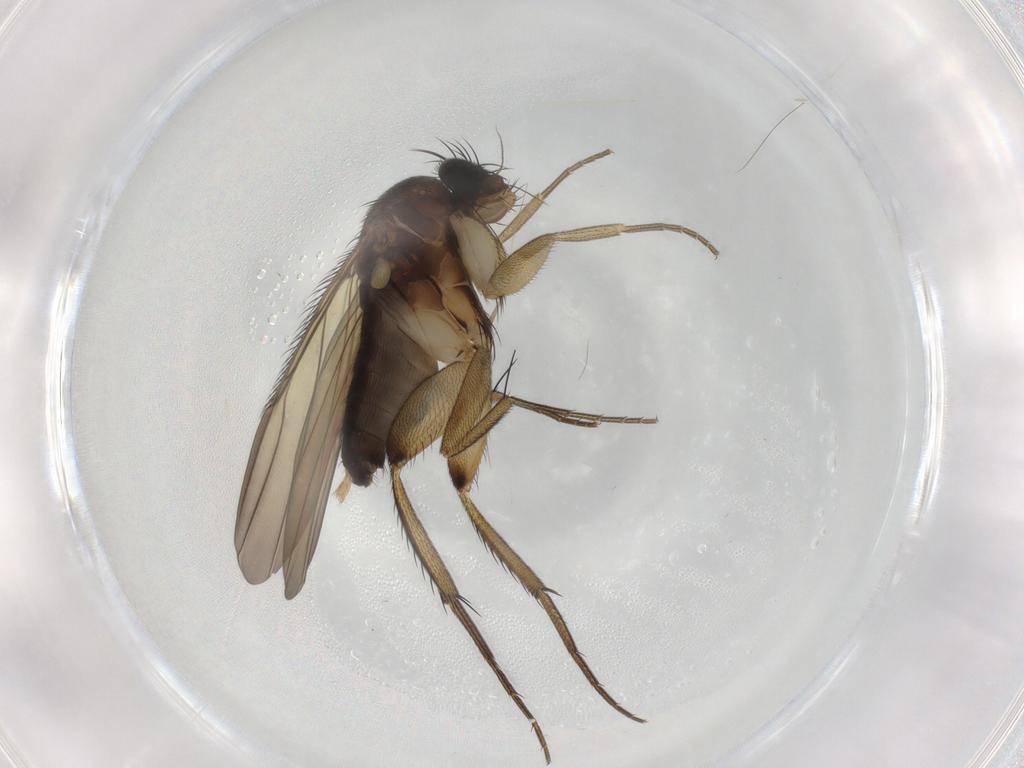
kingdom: Animalia
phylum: Arthropoda
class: Insecta
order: Diptera
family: Phoridae
